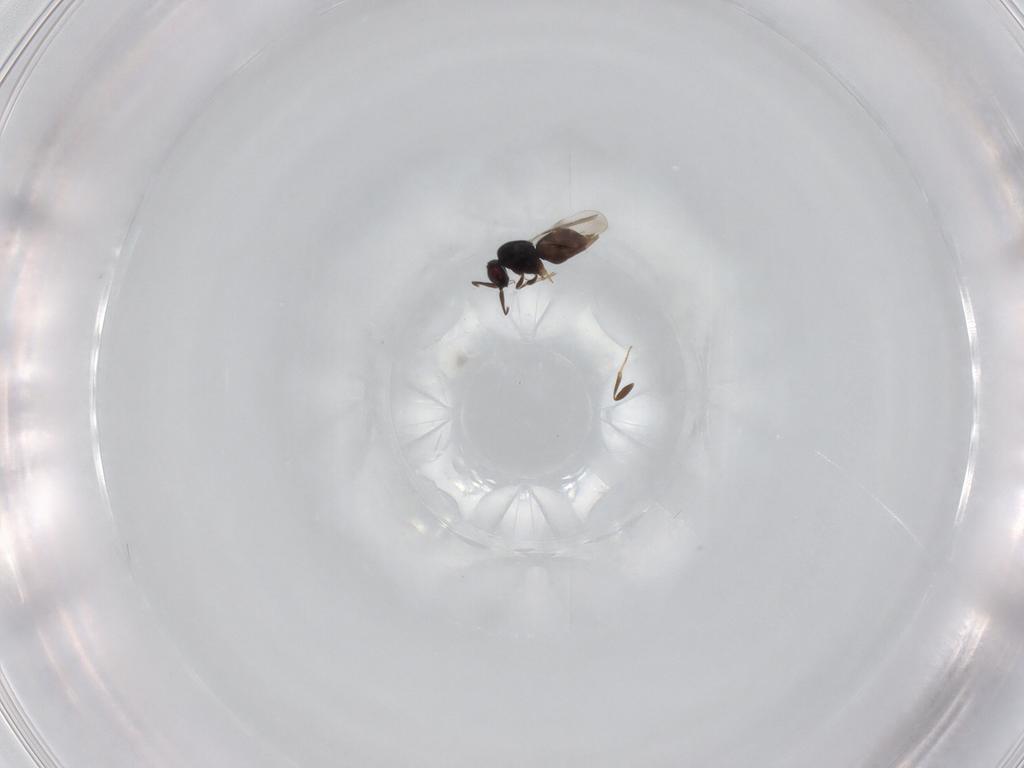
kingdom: Animalia
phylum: Arthropoda
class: Insecta
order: Hymenoptera
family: Ceraphronidae
